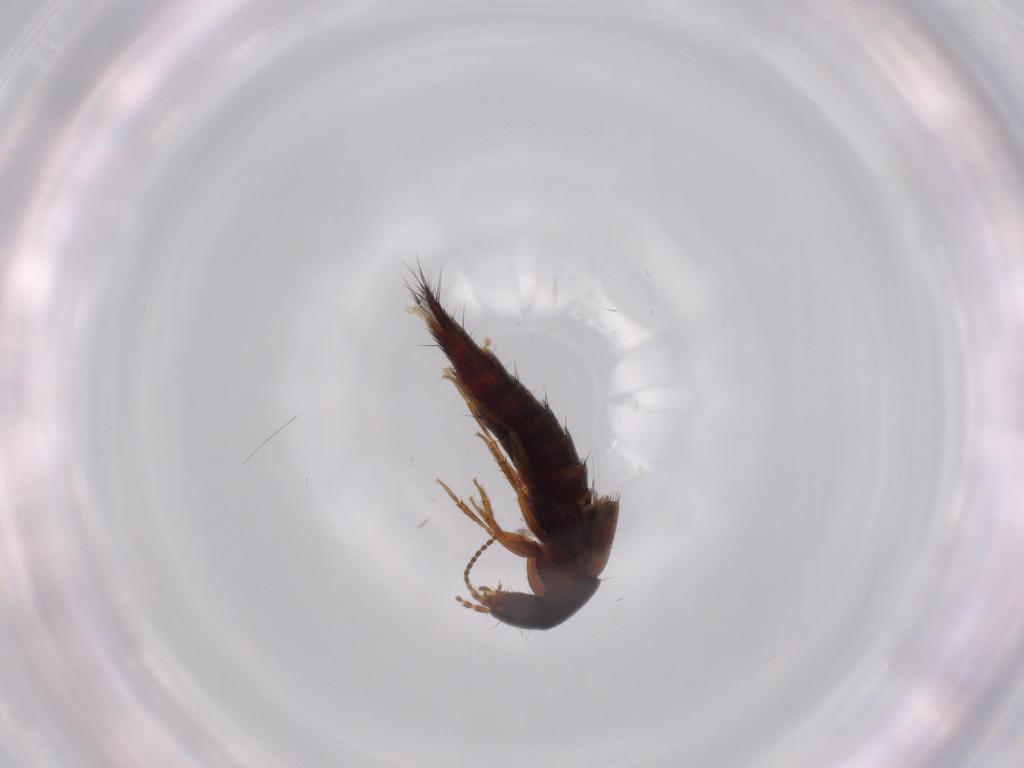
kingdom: Animalia
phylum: Arthropoda
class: Insecta
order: Coleoptera
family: Staphylinidae
